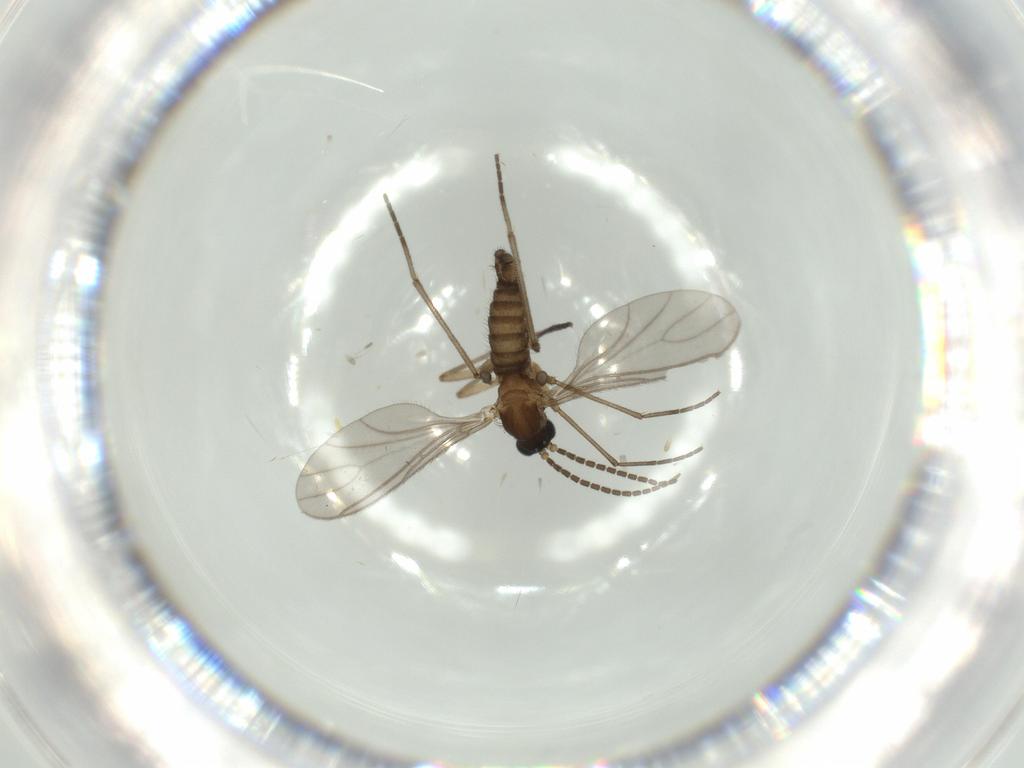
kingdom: Animalia
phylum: Arthropoda
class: Insecta
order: Diptera
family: Sciaridae
